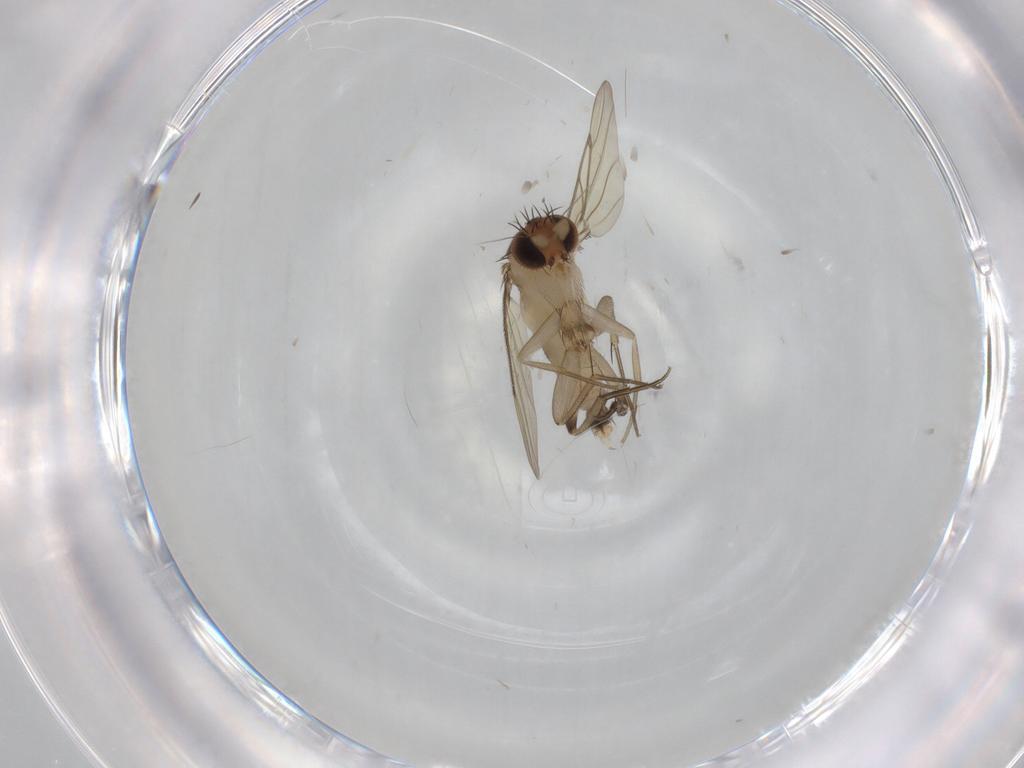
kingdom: Animalia
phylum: Arthropoda
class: Insecta
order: Diptera
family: Phoridae
